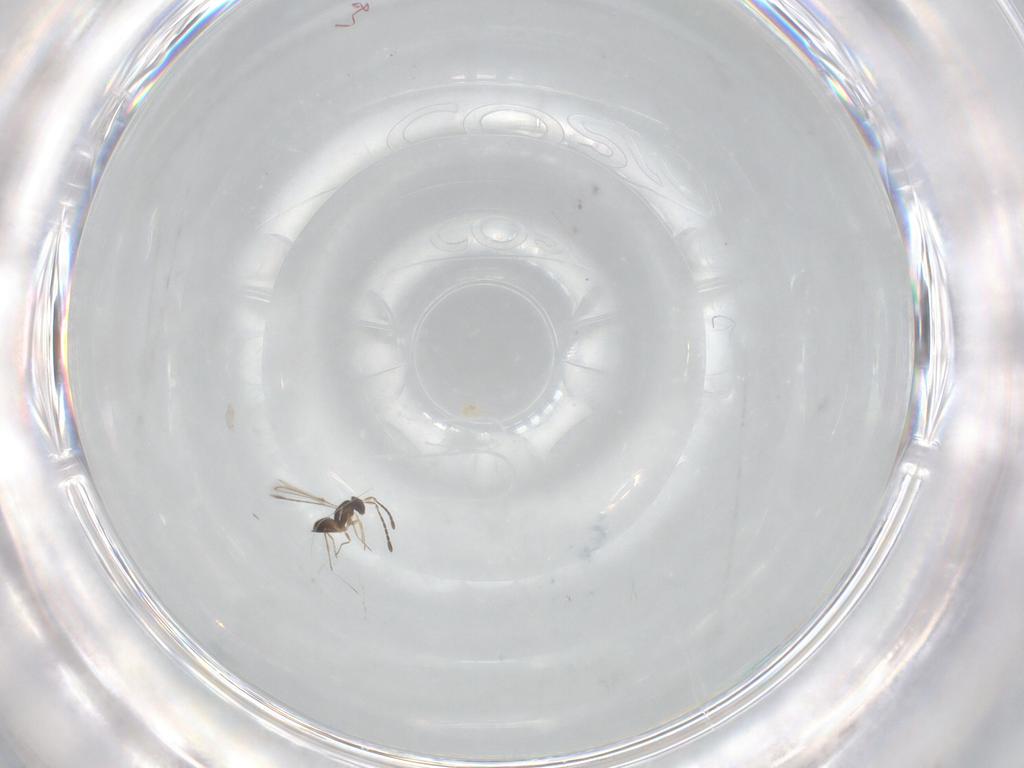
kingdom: Animalia
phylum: Arthropoda
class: Insecta
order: Hymenoptera
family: Mymaridae
